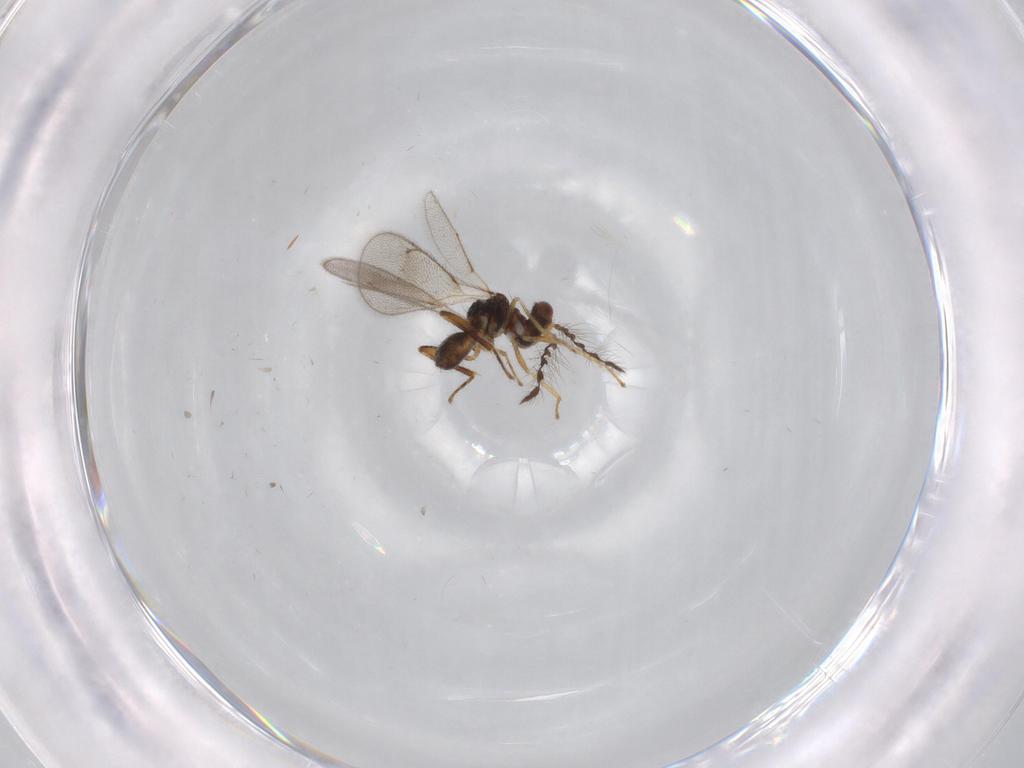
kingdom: Animalia
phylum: Arthropoda
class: Insecta
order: Hymenoptera
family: Eulophidae
